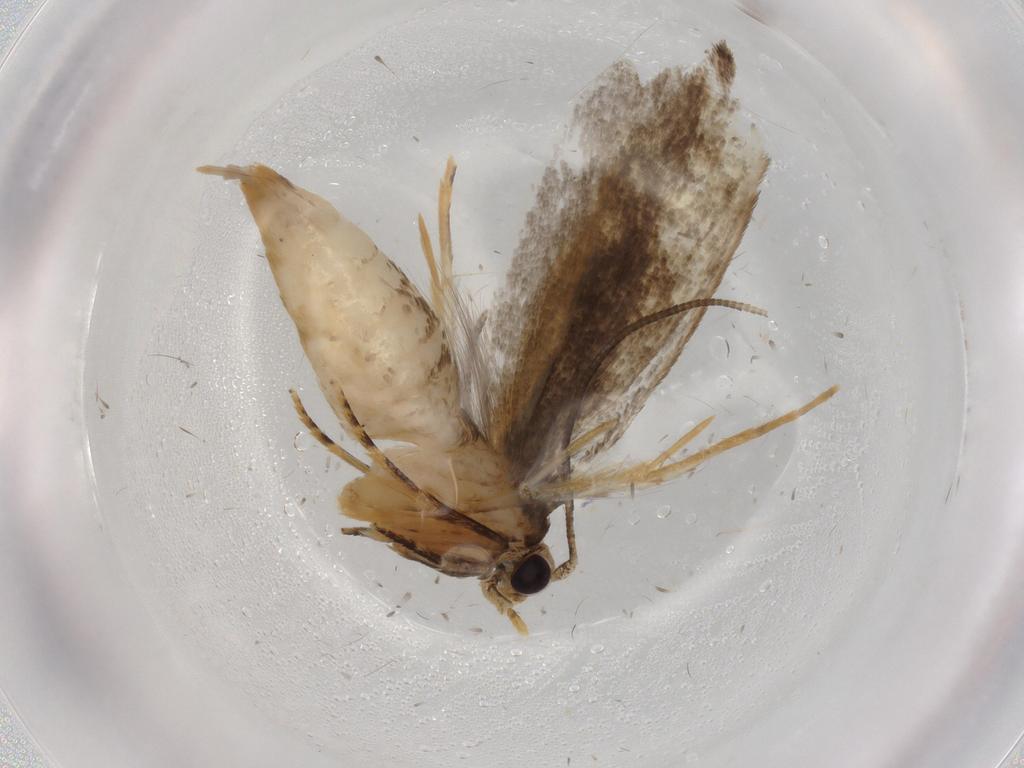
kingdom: Animalia
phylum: Arthropoda
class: Insecta
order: Lepidoptera
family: Tineidae
